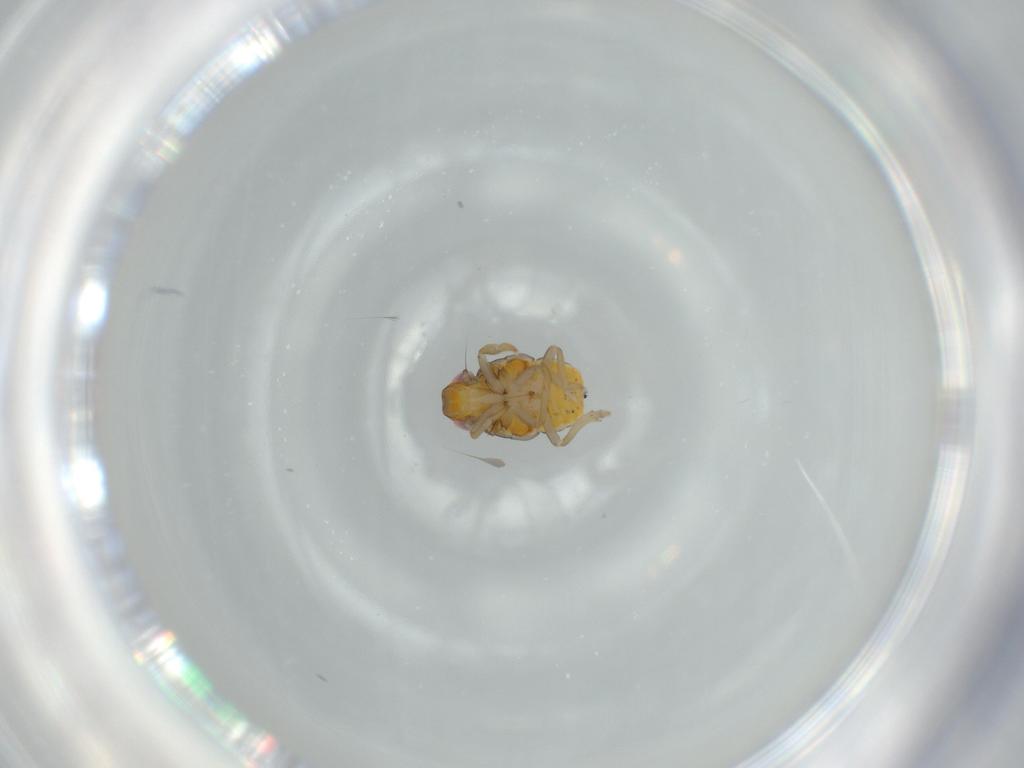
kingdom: Animalia
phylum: Arthropoda
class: Insecta
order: Hemiptera
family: Issidae
